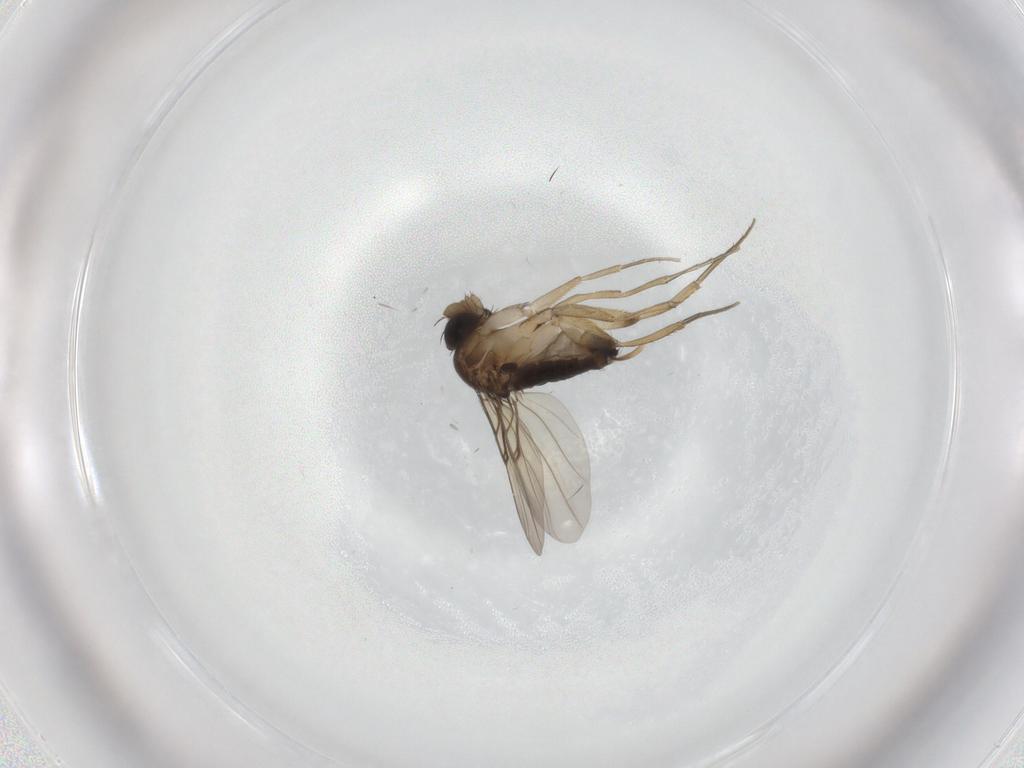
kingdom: Animalia
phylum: Arthropoda
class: Insecta
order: Diptera
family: Phoridae
